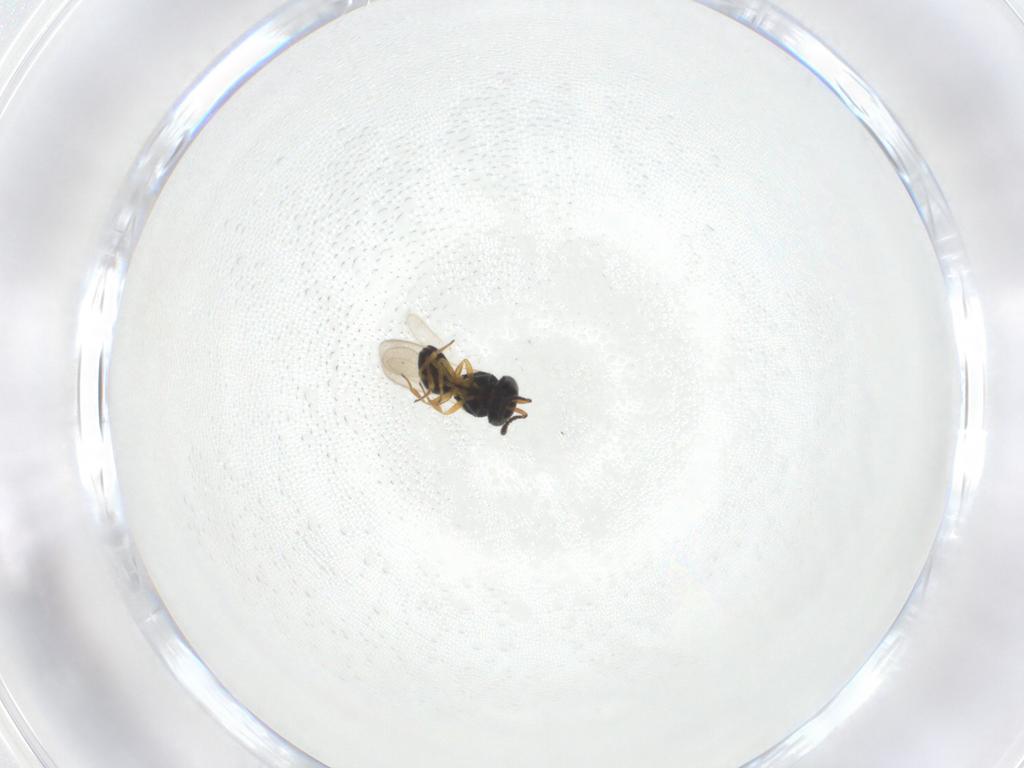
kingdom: Animalia
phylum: Arthropoda
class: Insecta
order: Hymenoptera
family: Scelionidae
